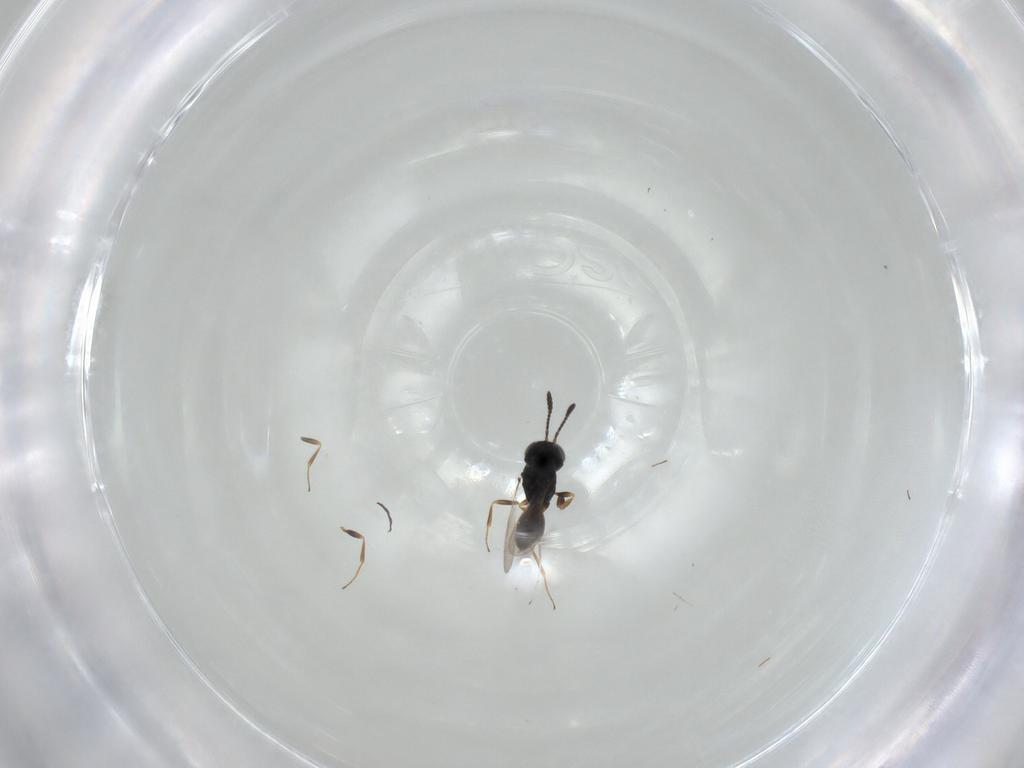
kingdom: Animalia
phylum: Arthropoda
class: Insecta
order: Hymenoptera
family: Scelionidae
